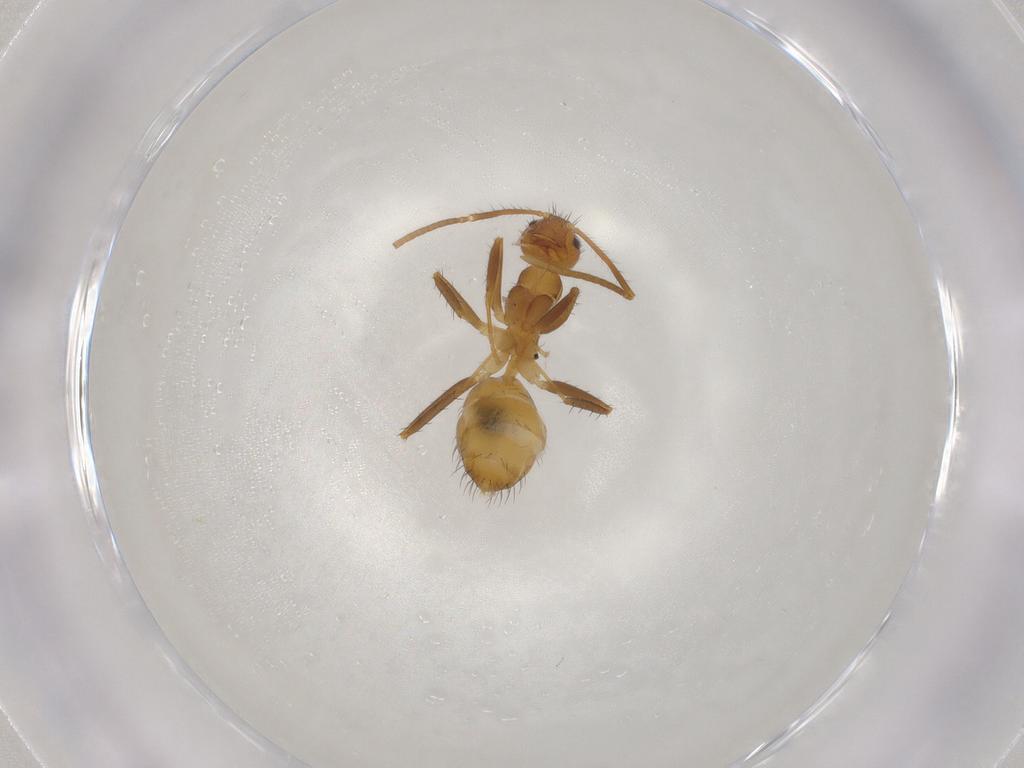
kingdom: Animalia
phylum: Arthropoda
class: Insecta
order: Hymenoptera
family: Formicidae
